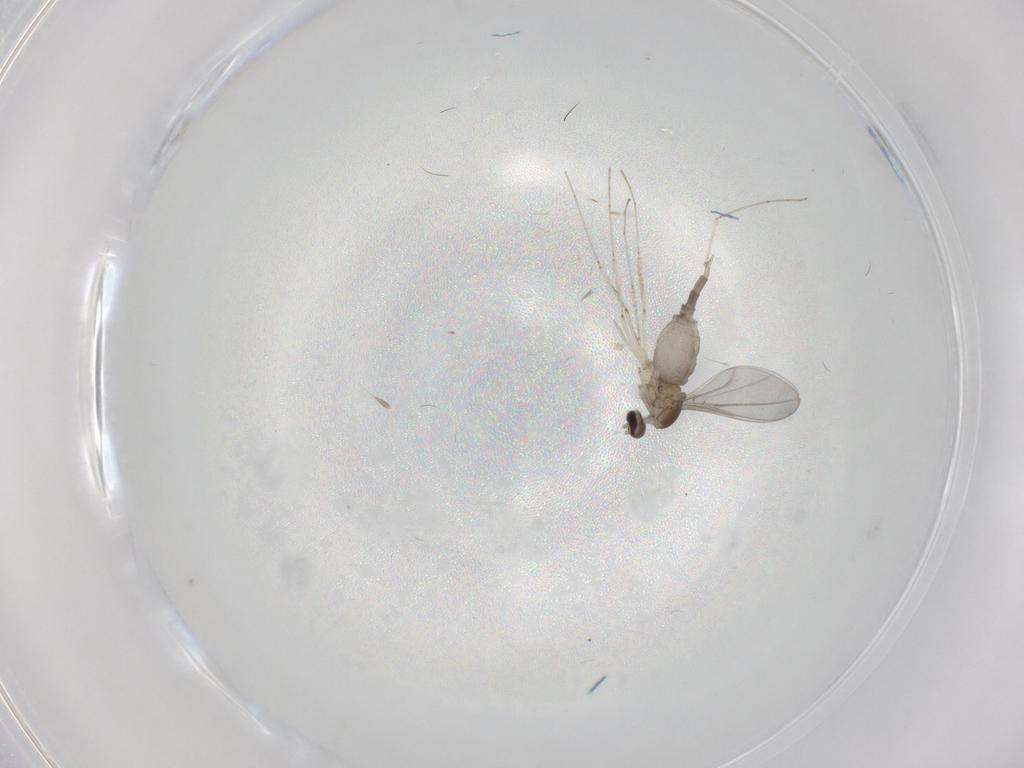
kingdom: Animalia
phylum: Arthropoda
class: Insecta
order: Diptera
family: Cecidomyiidae
